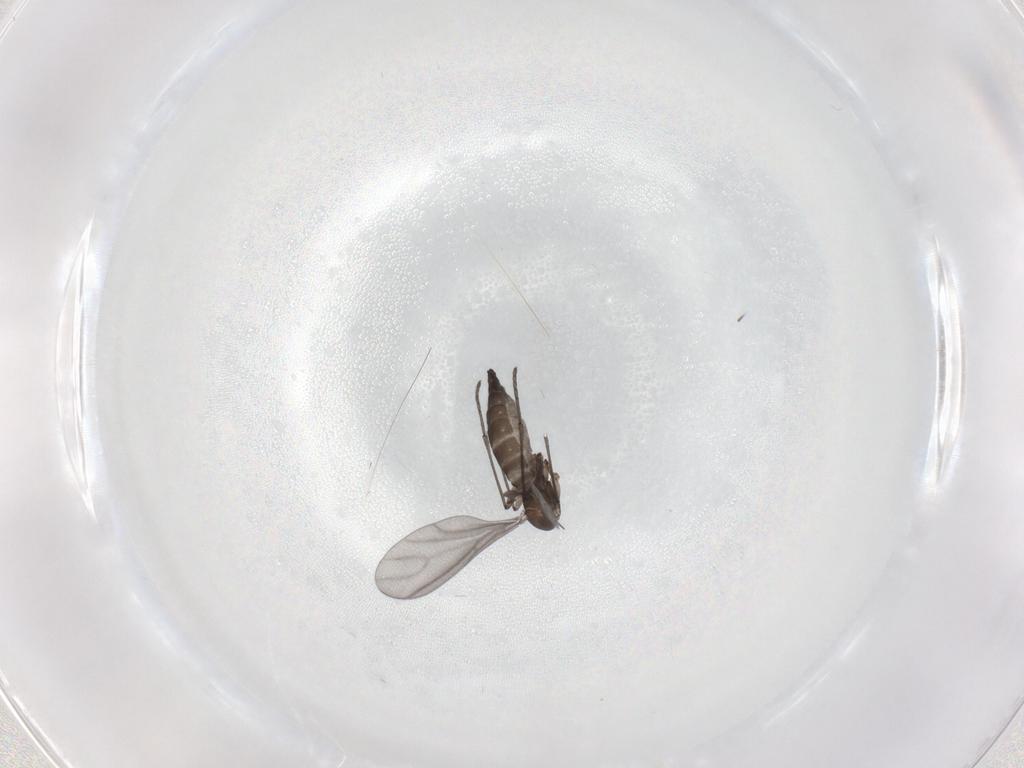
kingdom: Animalia
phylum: Arthropoda
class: Insecta
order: Diptera
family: Sciaridae
